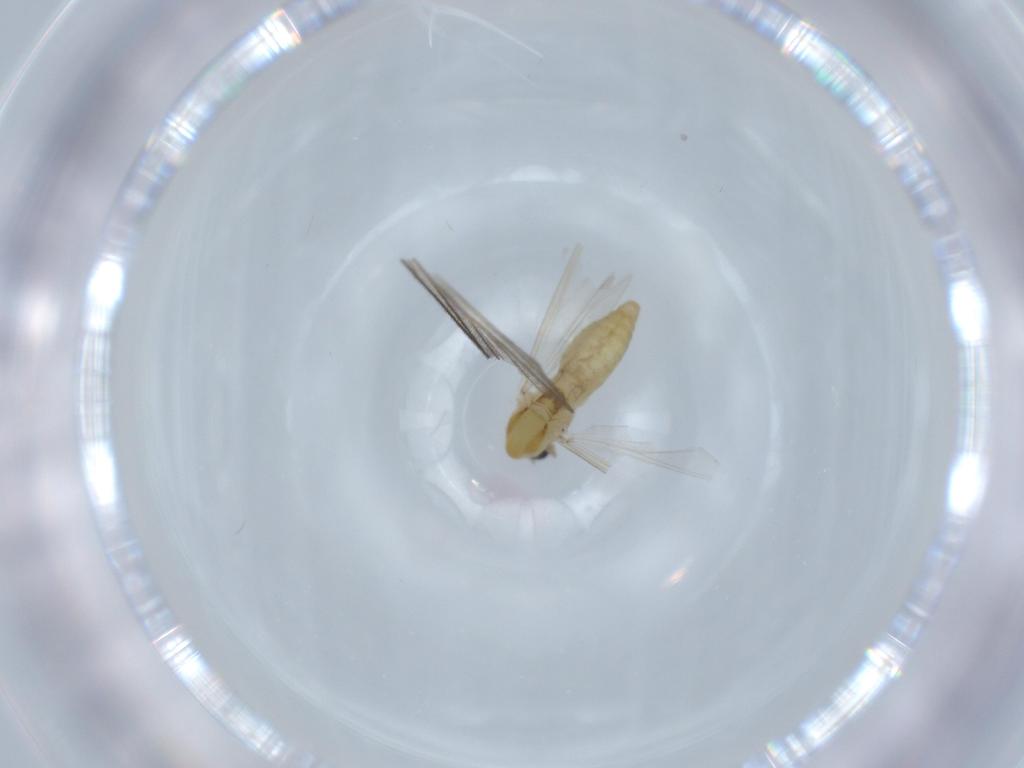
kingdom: Animalia
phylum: Arthropoda
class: Insecta
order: Diptera
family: Chironomidae
